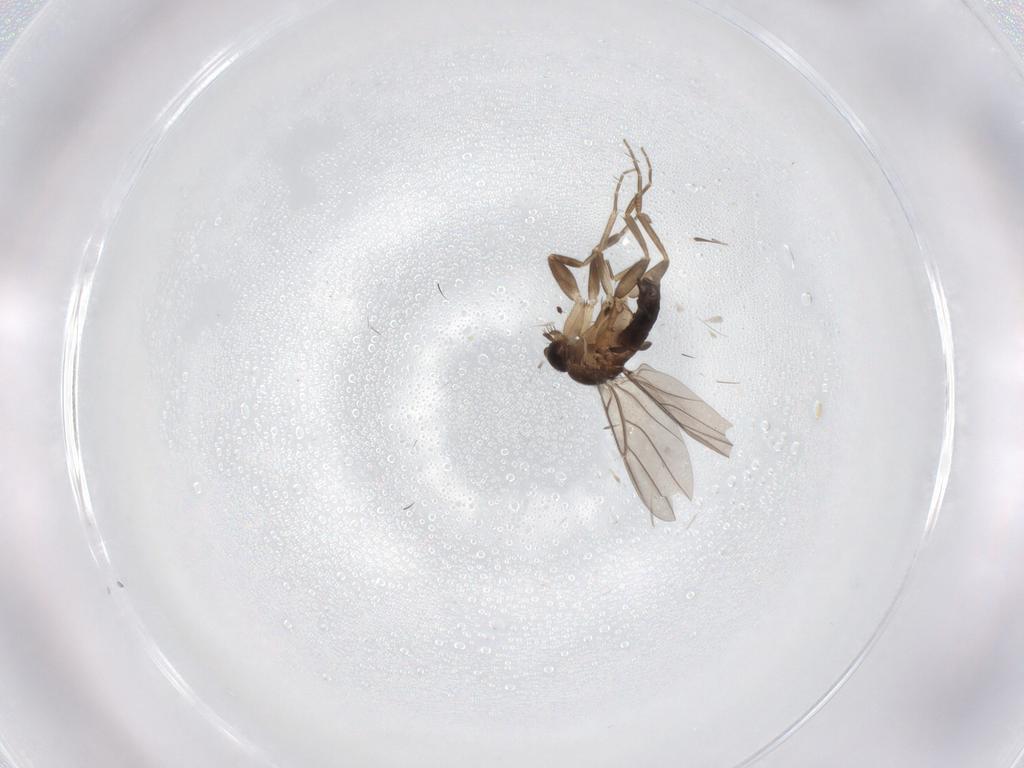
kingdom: Animalia
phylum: Arthropoda
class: Insecta
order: Diptera
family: Phoridae
